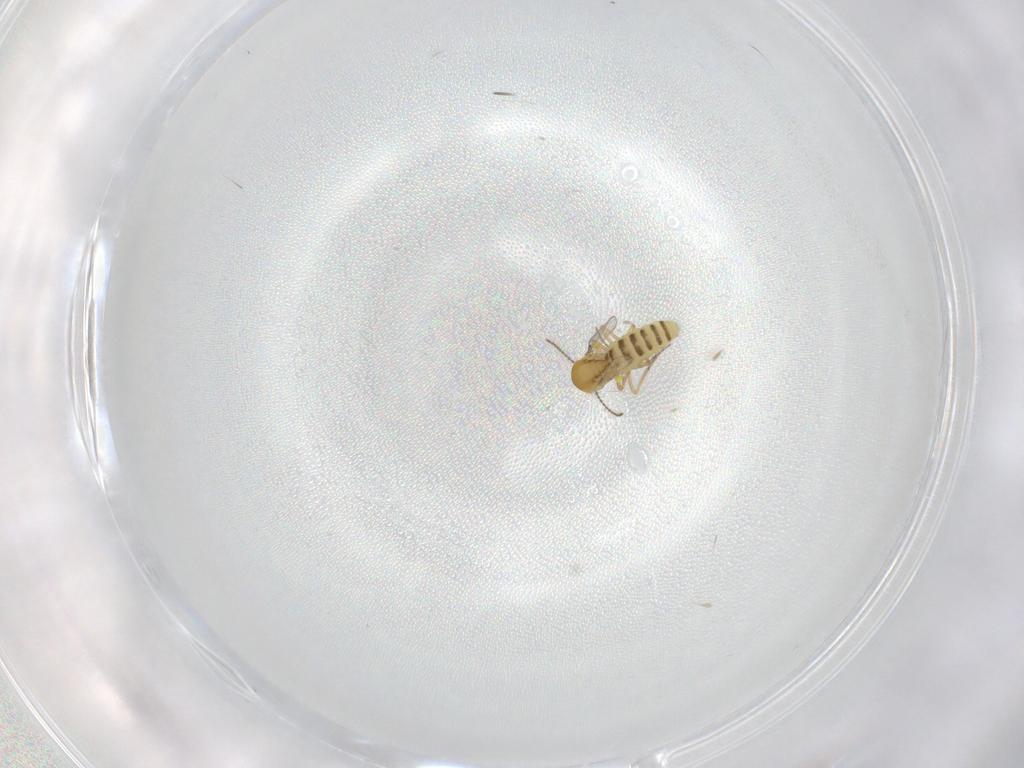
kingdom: Animalia
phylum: Arthropoda
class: Insecta
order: Diptera
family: Ceratopogonidae
